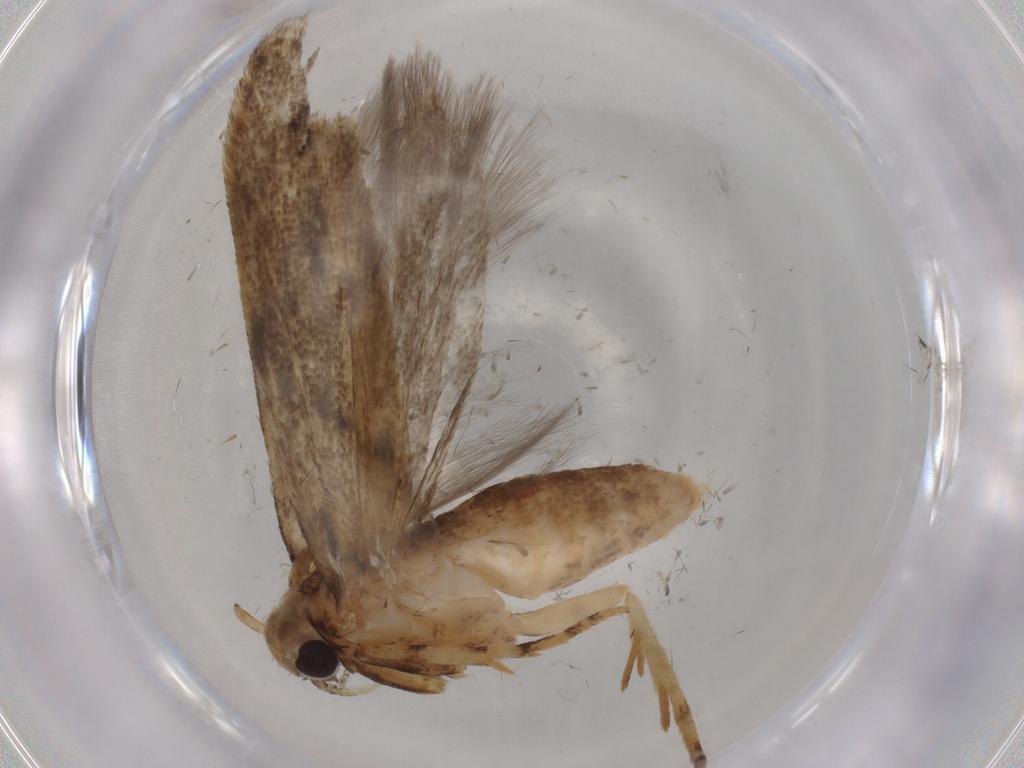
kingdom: Animalia
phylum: Arthropoda
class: Insecta
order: Lepidoptera
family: Autostichidae
